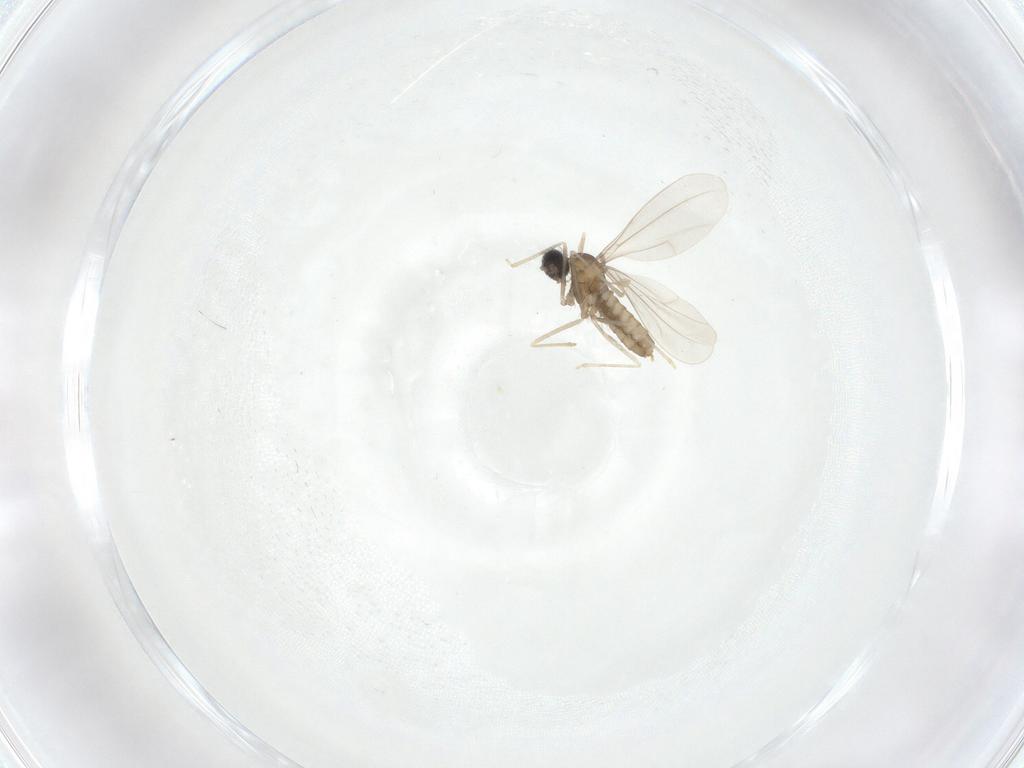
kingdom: Animalia
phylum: Arthropoda
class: Insecta
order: Diptera
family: Cecidomyiidae
